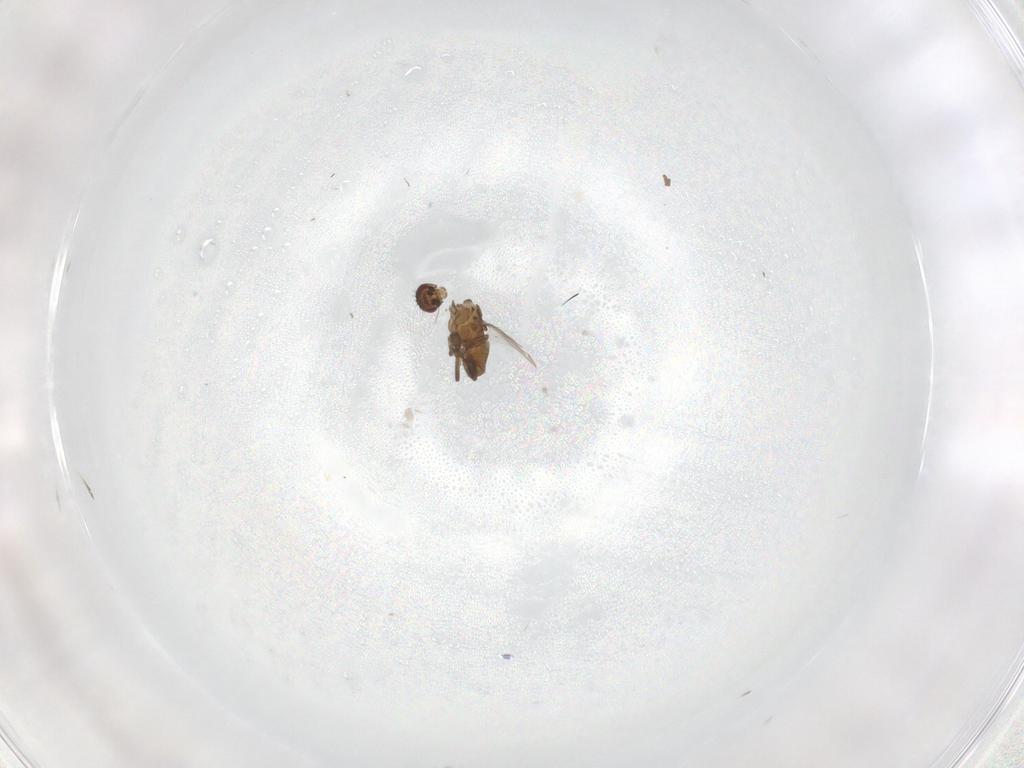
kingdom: Animalia
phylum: Arthropoda
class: Insecta
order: Diptera
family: Sphaeroceridae
